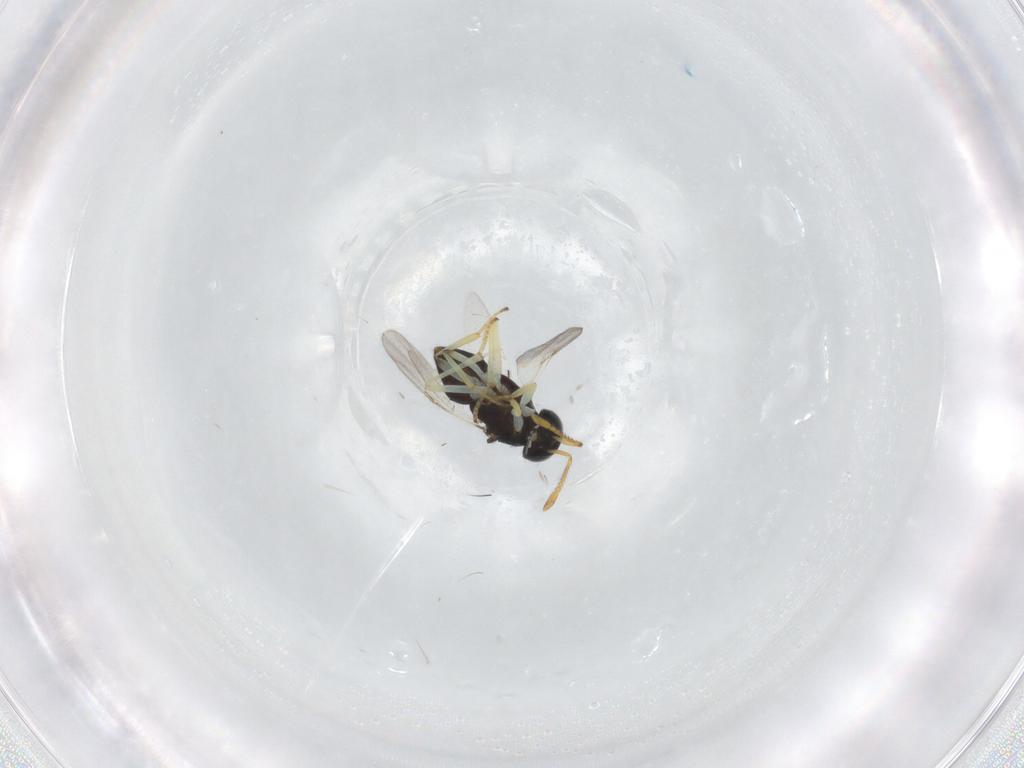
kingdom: Animalia
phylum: Arthropoda
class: Insecta
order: Hymenoptera
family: Encyrtidae
